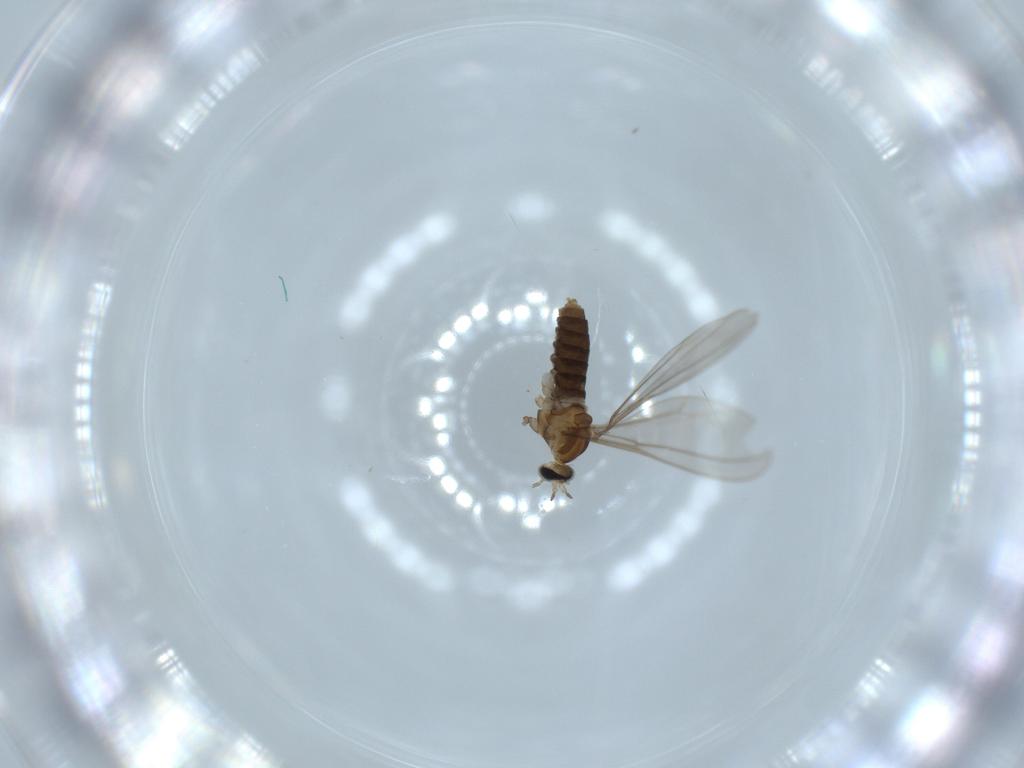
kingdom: Animalia
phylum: Arthropoda
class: Insecta
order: Diptera
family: Cecidomyiidae
